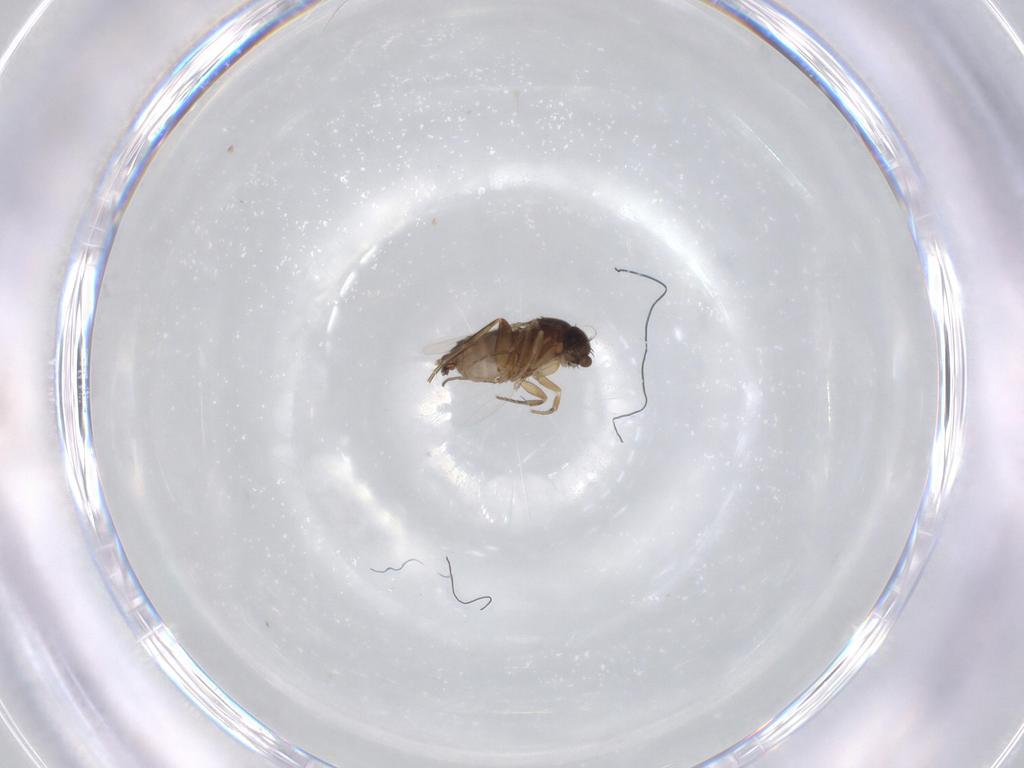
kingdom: Animalia
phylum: Arthropoda
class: Insecta
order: Diptera
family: Phoridae
